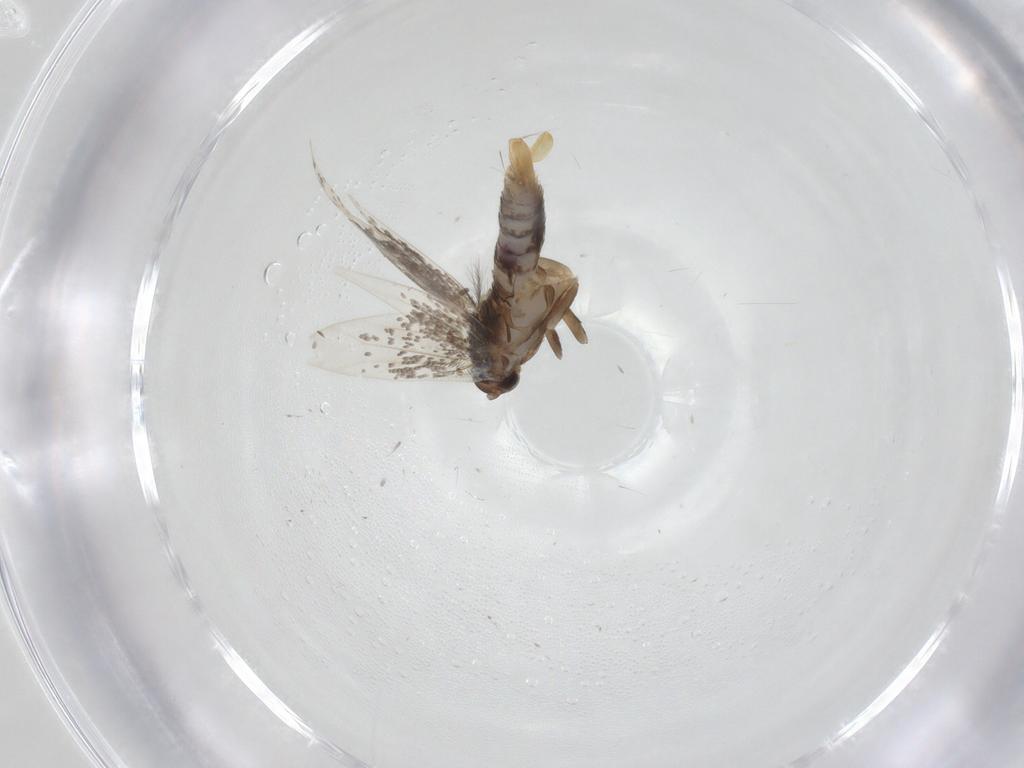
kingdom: Animalia
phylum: Arthropoda
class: Insecta
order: Lepidoptera
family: Elachistidae
